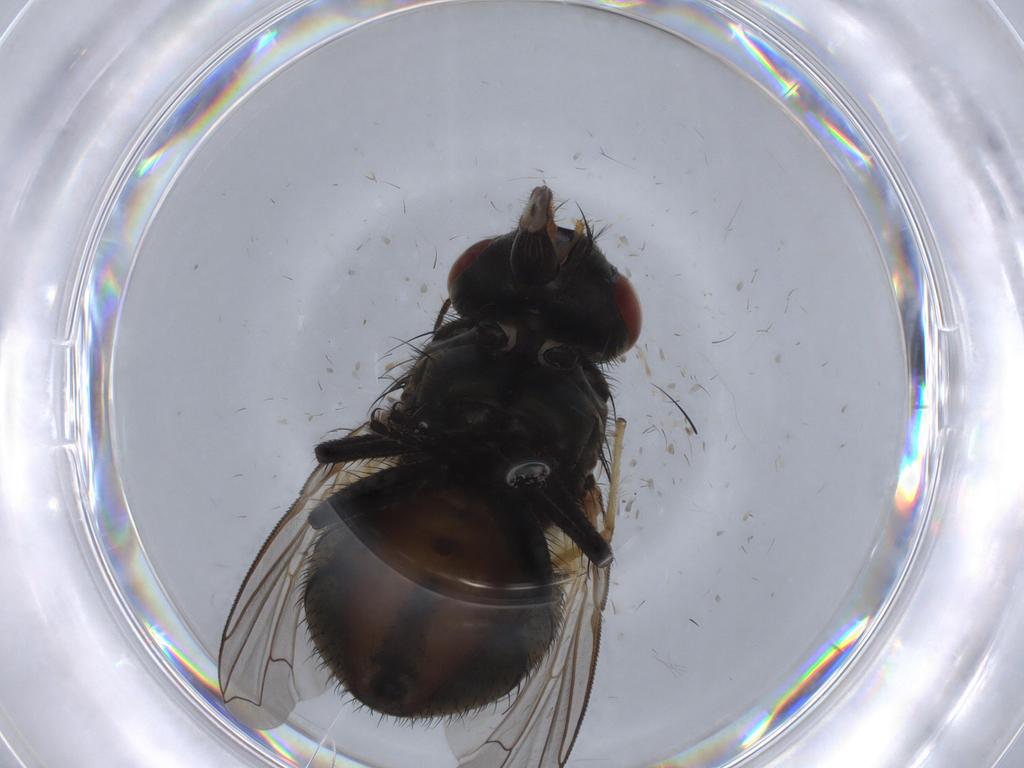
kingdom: Animalia
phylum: Arthropoda
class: Insecta
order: Diptera
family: Sciaridae
